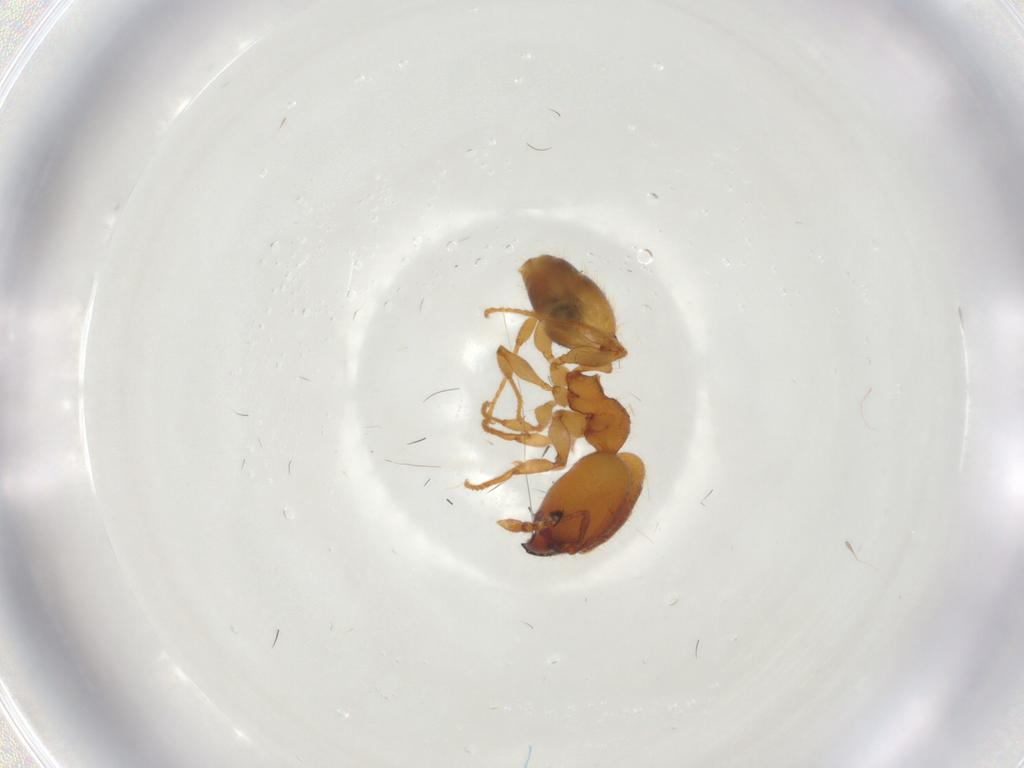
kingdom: Animalia
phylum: Arthropoda
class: Insecta
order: Hymenoptera
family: Formicidae
